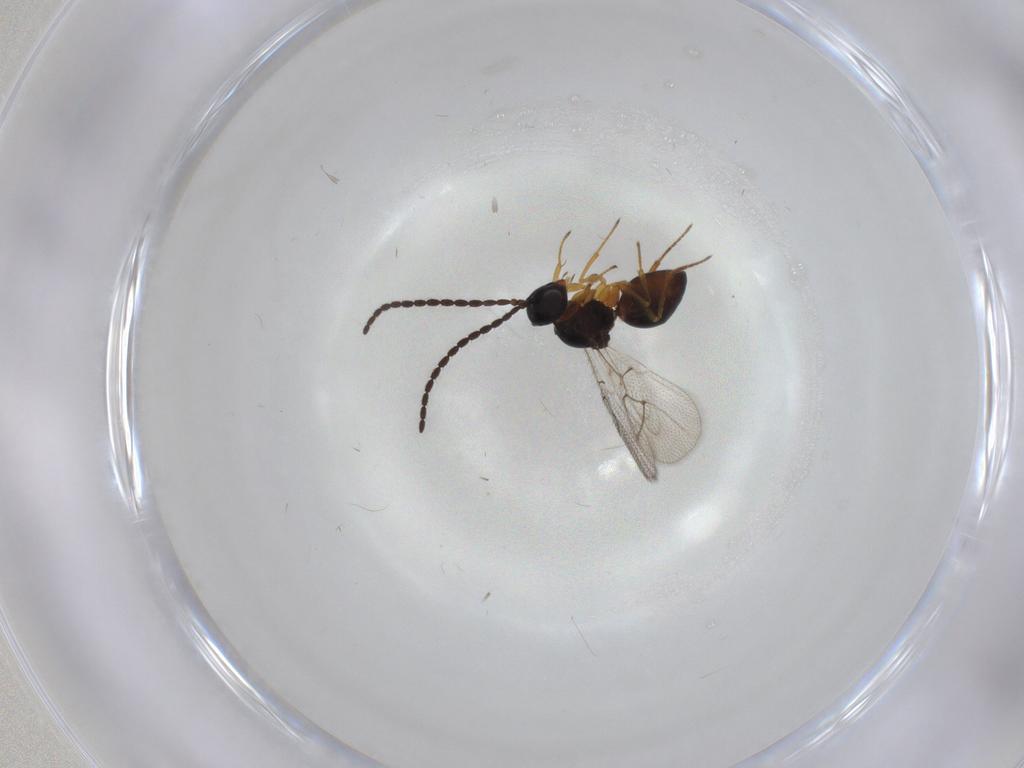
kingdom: Animalia
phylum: Arthropoda
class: Insecta
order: Hymenoptera
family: Figitidae
